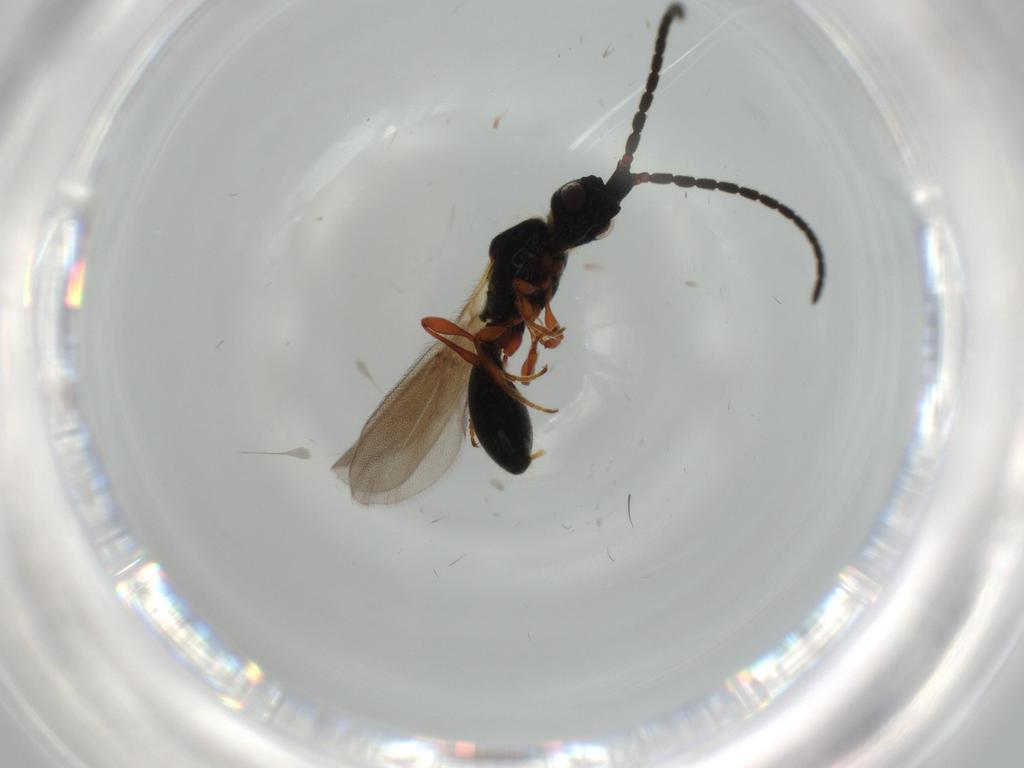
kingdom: Animalia
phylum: Arthropoda
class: Insecta
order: Hymenoptera
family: Diapriidae
